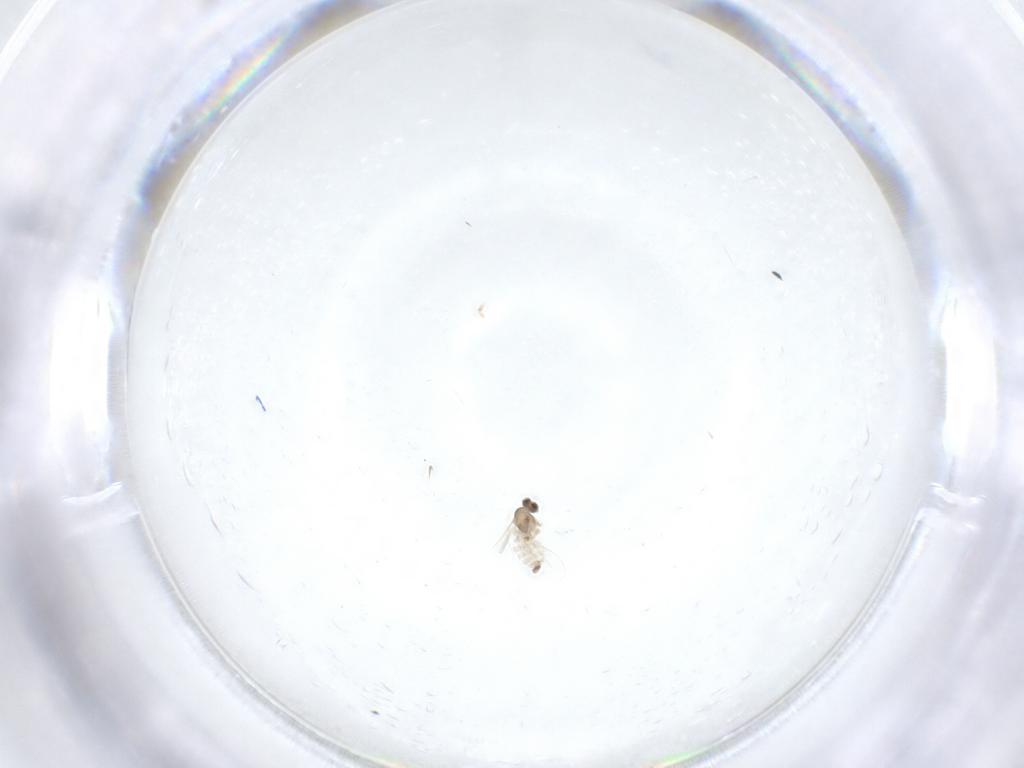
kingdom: Animalia
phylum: Arthropoda
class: Insecta
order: Diptera
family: Cecidomyiidae
